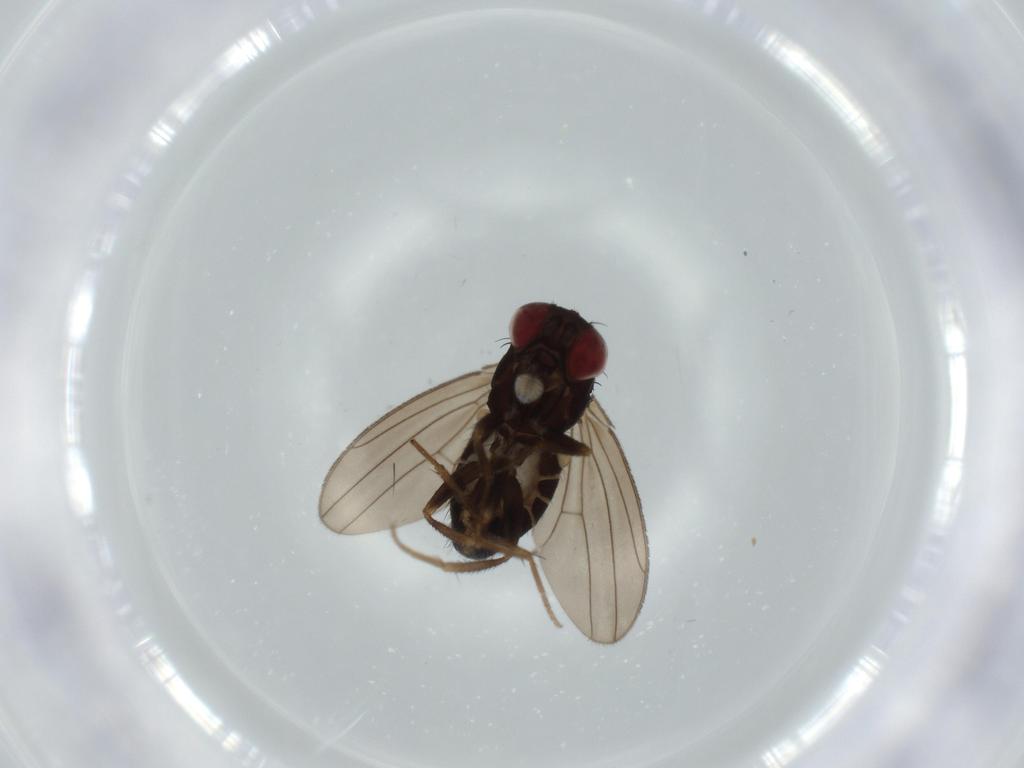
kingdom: Animalia
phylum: Arthropoda
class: Insecta
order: Diptera
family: Drosophilidae
